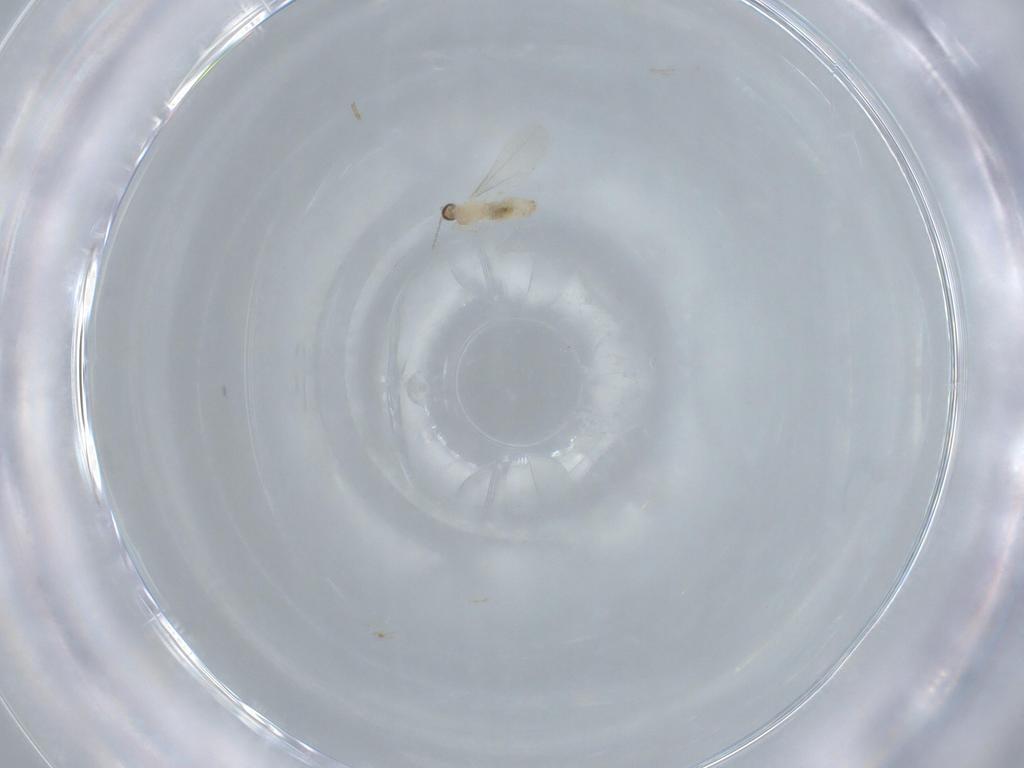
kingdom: Animalia
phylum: Arthropoda
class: Insecta
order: Diptera
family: Cecidomyiidae
